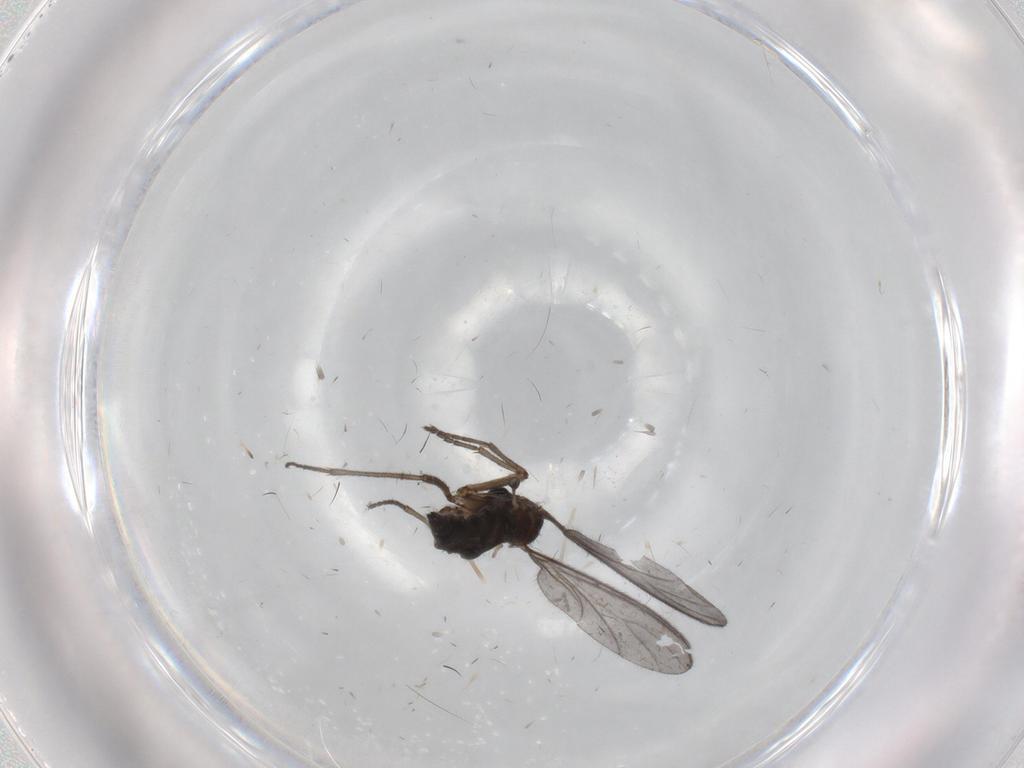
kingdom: Animalia
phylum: Arthropoda
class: Insecta
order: Diptera
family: Sciaridae
